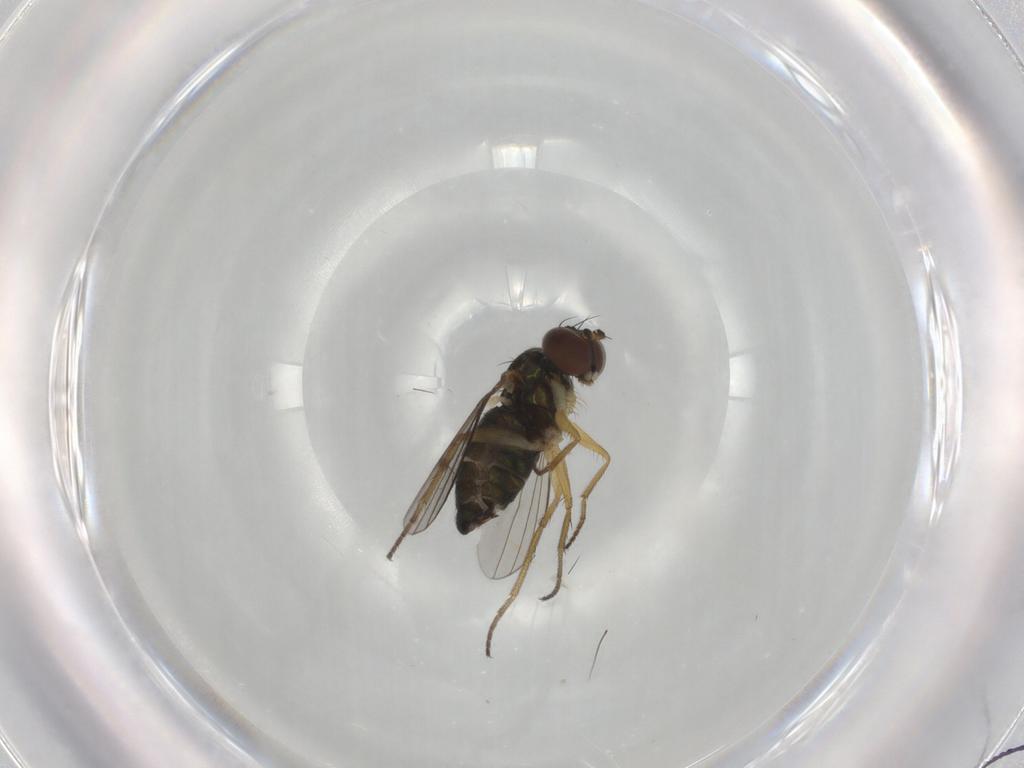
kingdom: Animalia
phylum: Arthropoda
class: Insecta
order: Diptera
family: Dolichopodidae
